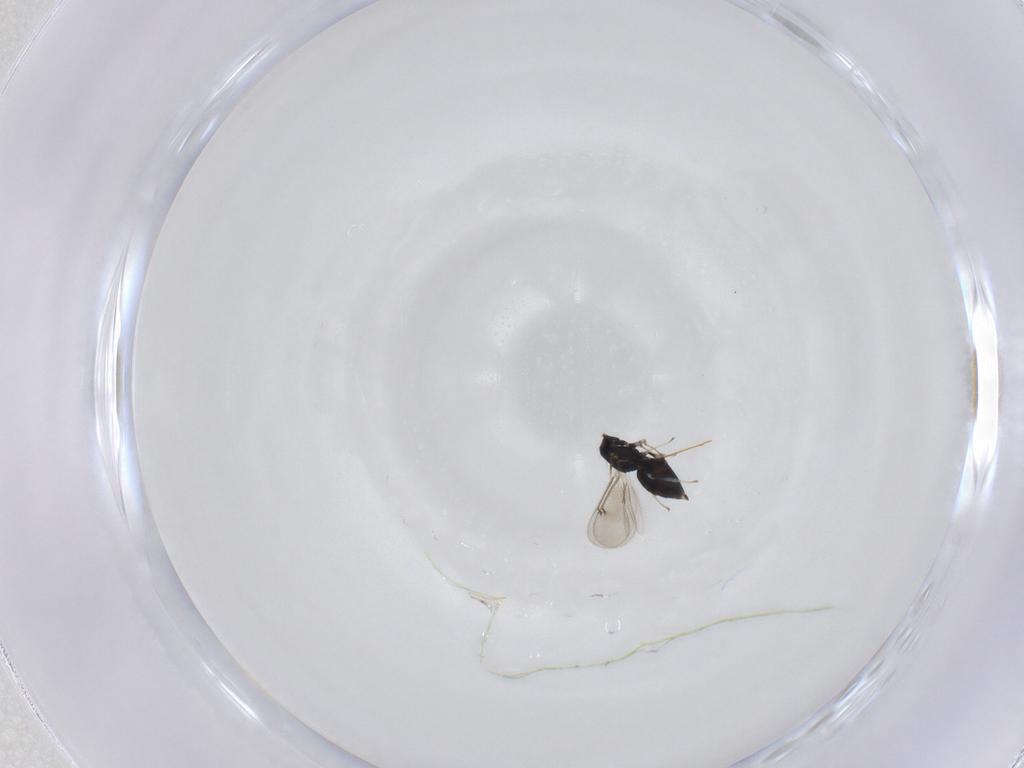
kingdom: Animalia
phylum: Arthropoda
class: Insecta
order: Hymenoptera
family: Eulophidae
